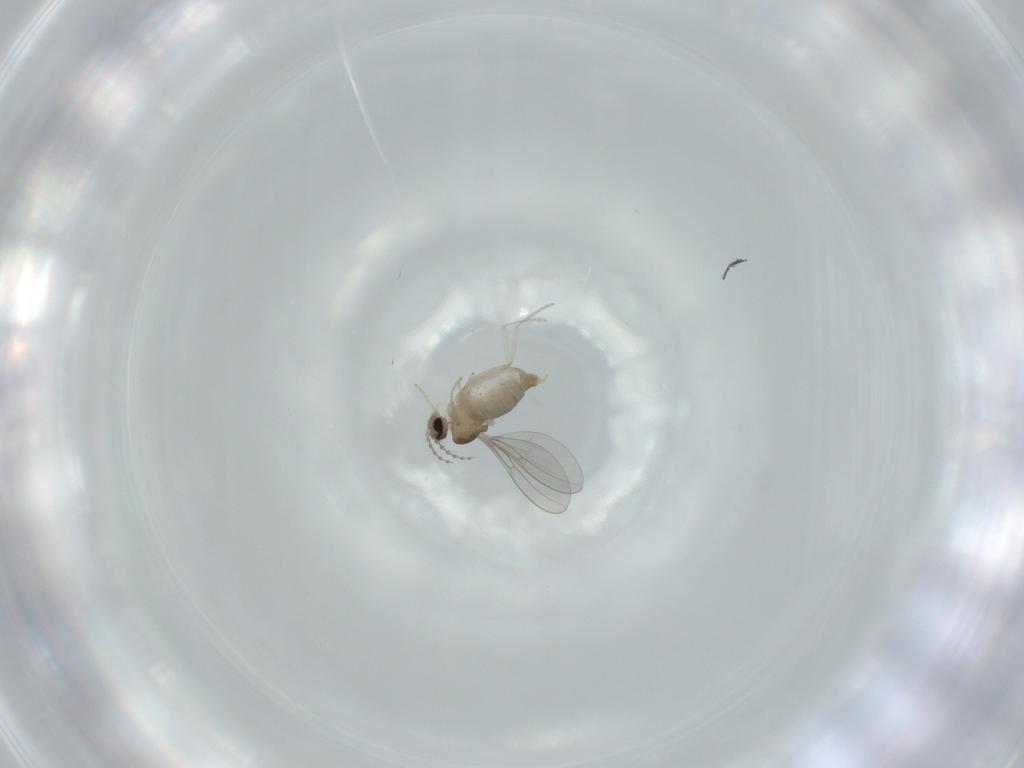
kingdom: Animalia
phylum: Arthropoda
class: Insecta
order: Diptera
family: Cecidomyiidae
